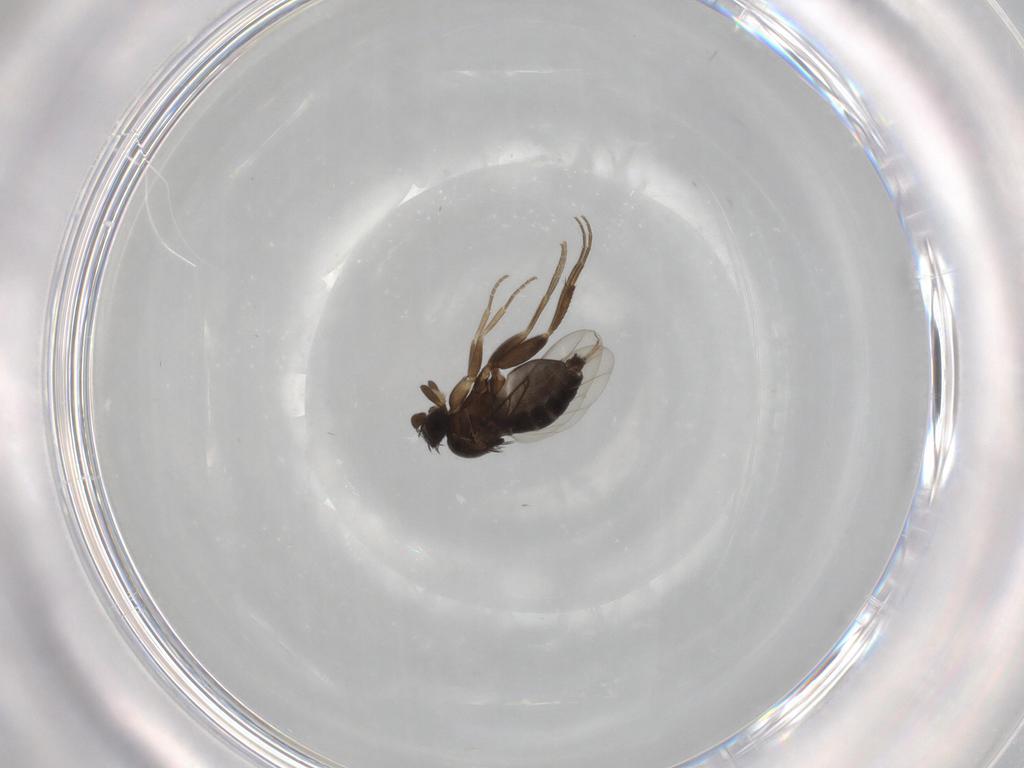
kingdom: Animalia
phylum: Arthropoda
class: Insecta
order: Diptera
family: Phoridae
